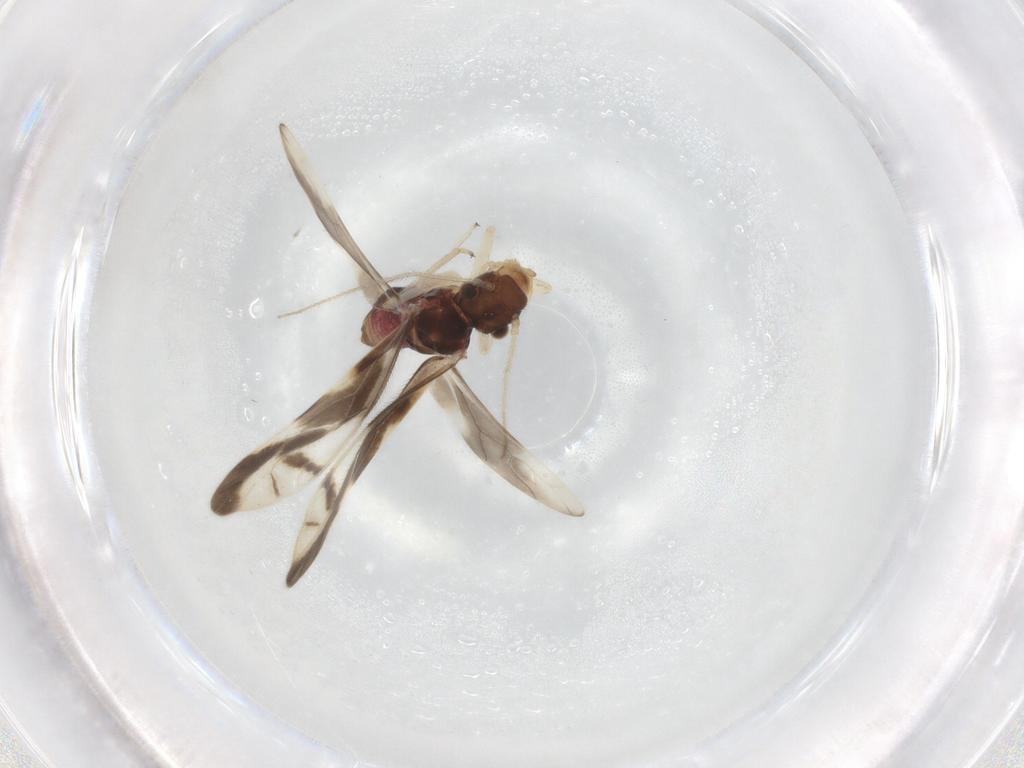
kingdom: Animalia
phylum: Arthropoda
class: Insecta
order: Psocodea
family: Caeciliusidae
